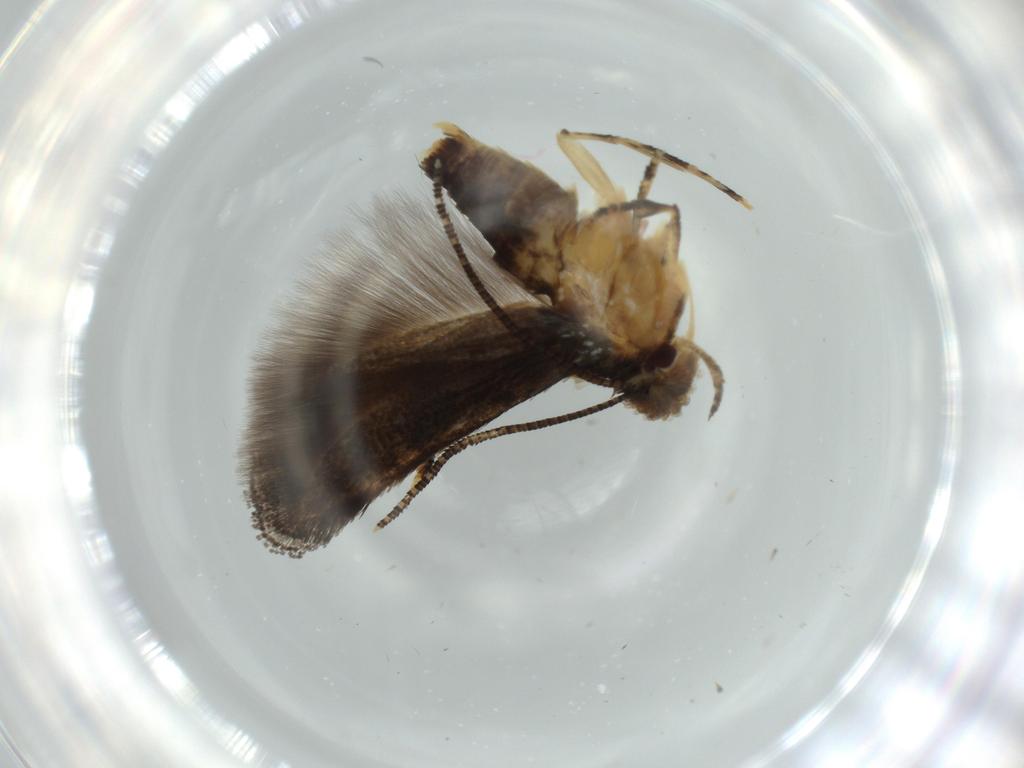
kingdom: Animalia
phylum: Arthropoda
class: Insecta
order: Lepidoptera
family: Momphidae
